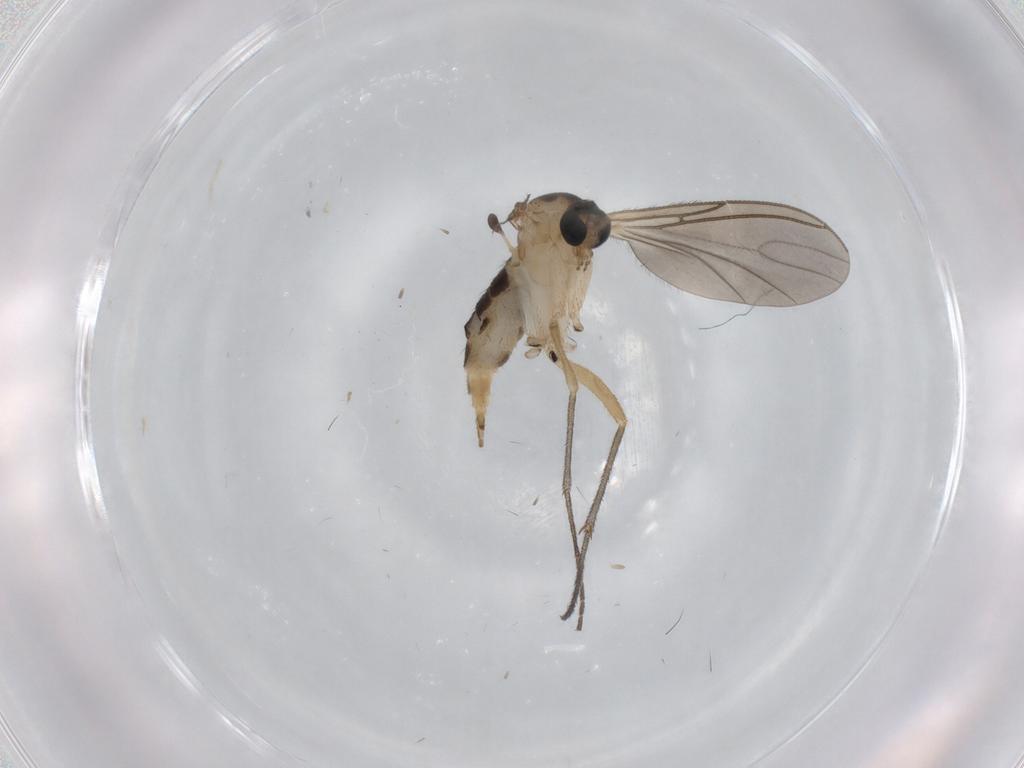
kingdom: Animalia
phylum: Arthropoda
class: Insecta
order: Diptera
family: Sciaridae
